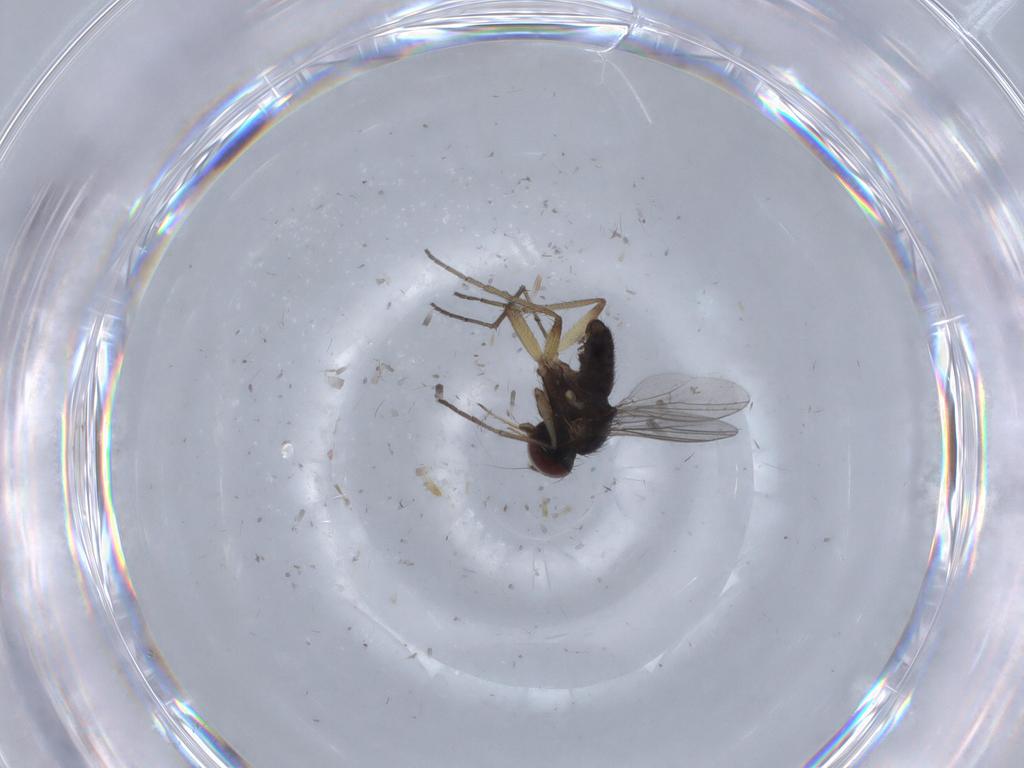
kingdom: Animalia
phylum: Arthropoda
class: Insecta
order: Diptera
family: Dolichopodidae
